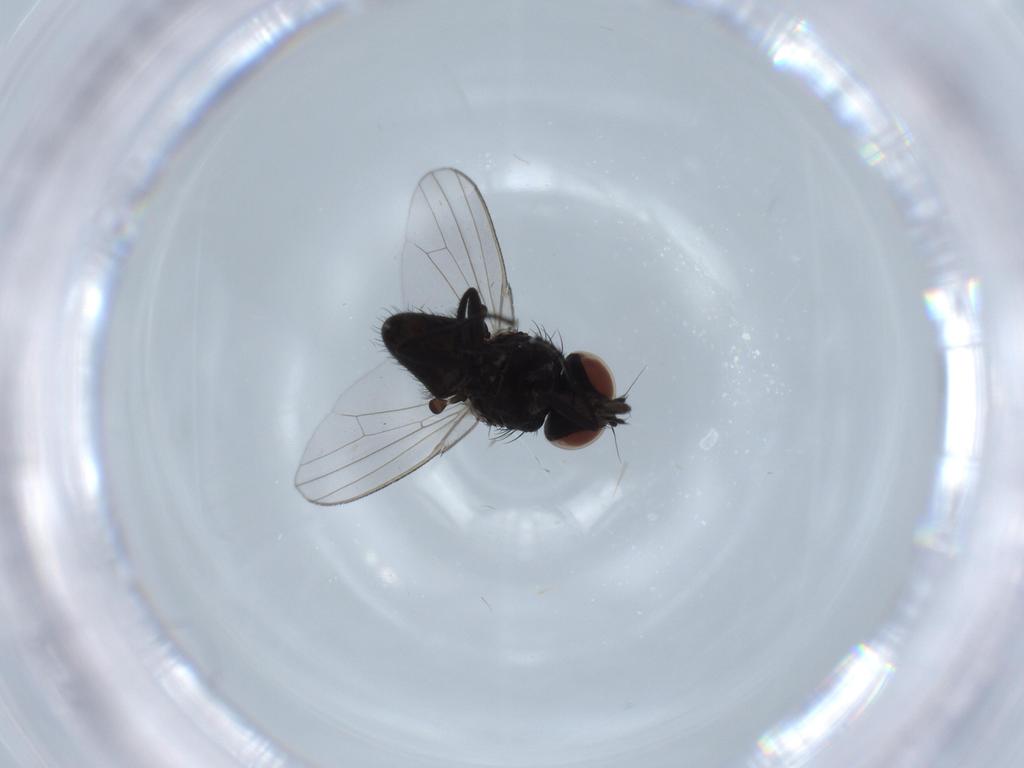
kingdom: Animalia
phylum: Arthropoda
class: Insecta
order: Diptera
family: Milichiidae
